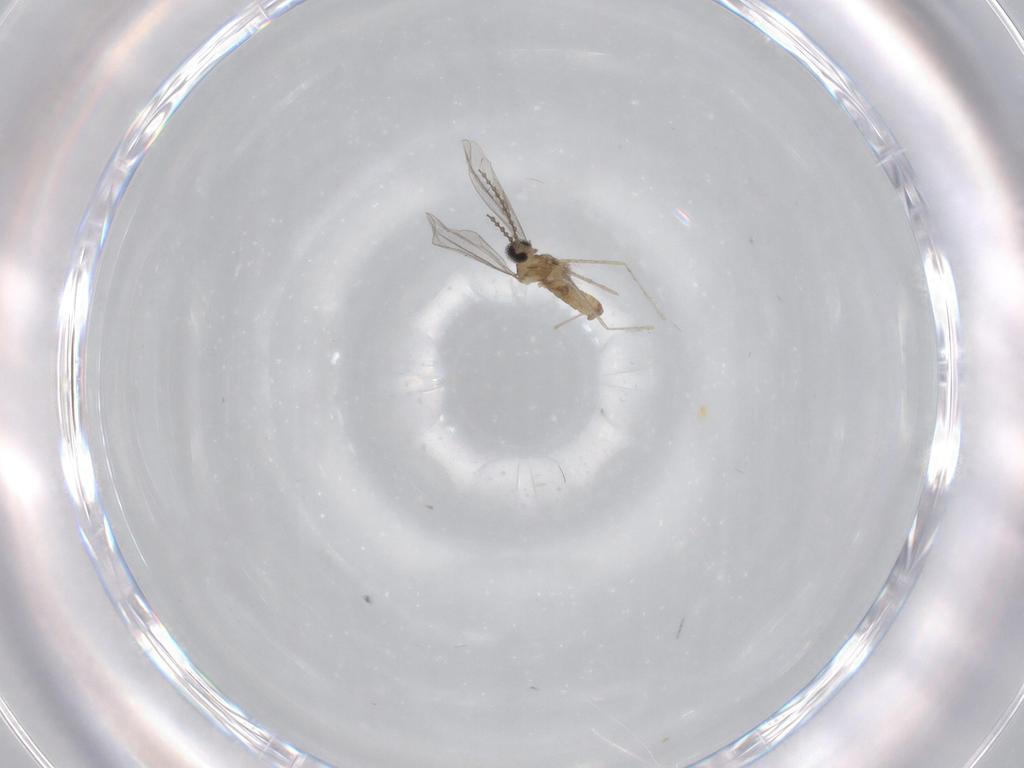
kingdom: Animalia
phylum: Arthropoda
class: Insecta
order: Diptera
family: Cecidomyiidae
